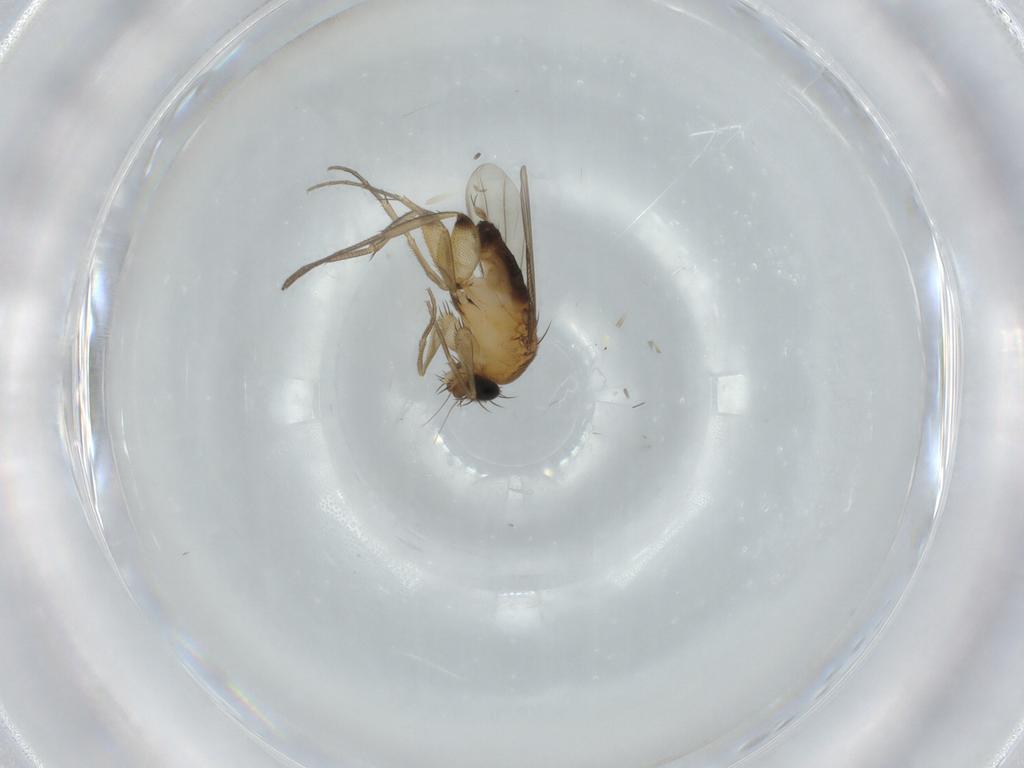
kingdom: Animalia
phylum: Arthropoda
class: Insecta
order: Diptera
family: Phoridae
